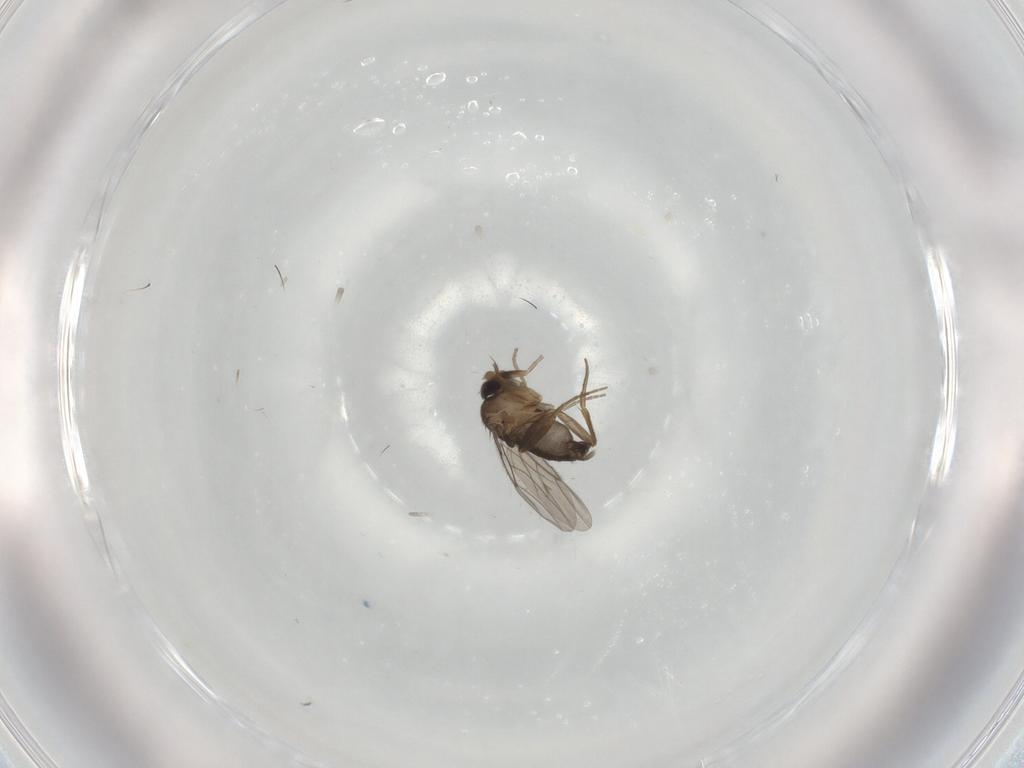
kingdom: Animalia
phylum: Arthropoda
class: Insecta
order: Diptera
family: Phoridae
